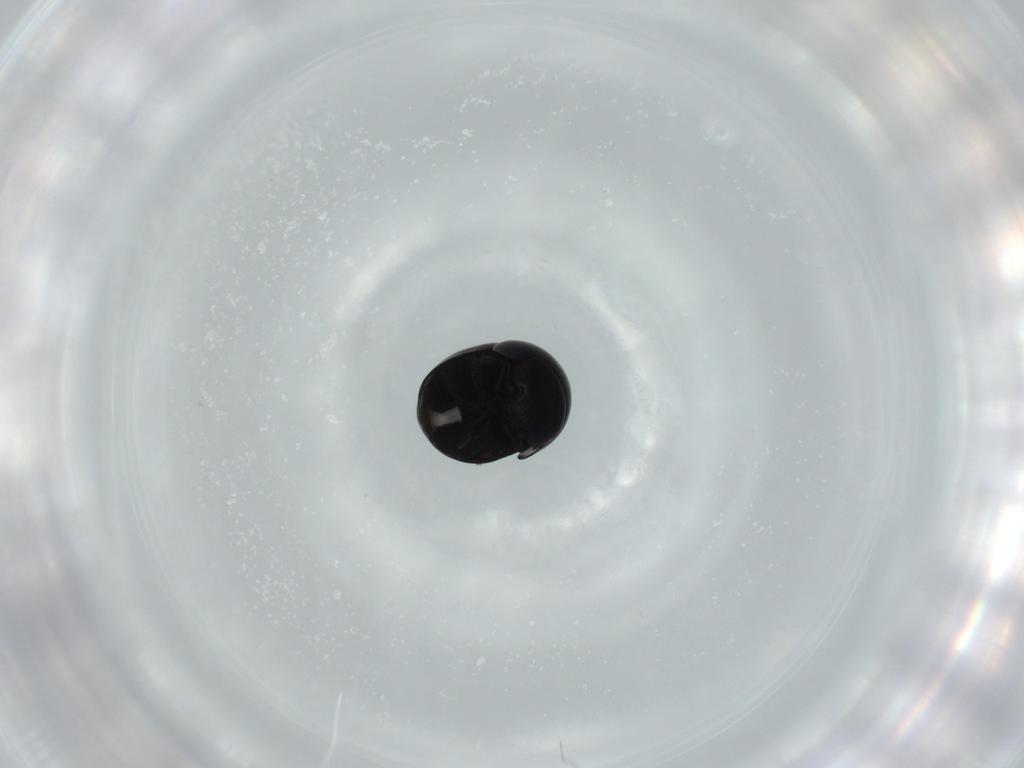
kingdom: Animalia
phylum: Arthropoda
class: Insecta
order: Coleoptera
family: Cybocephalidae
